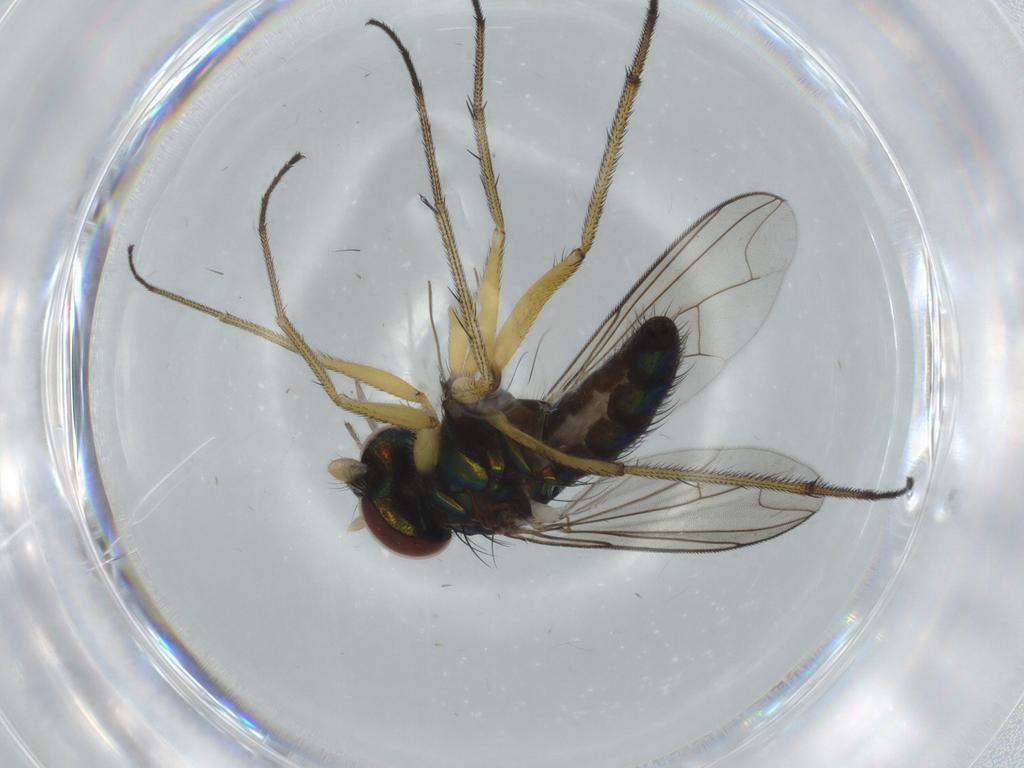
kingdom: Animalia
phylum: Arthropoda
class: Insecta
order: Diptera
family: Dolichopodidae
